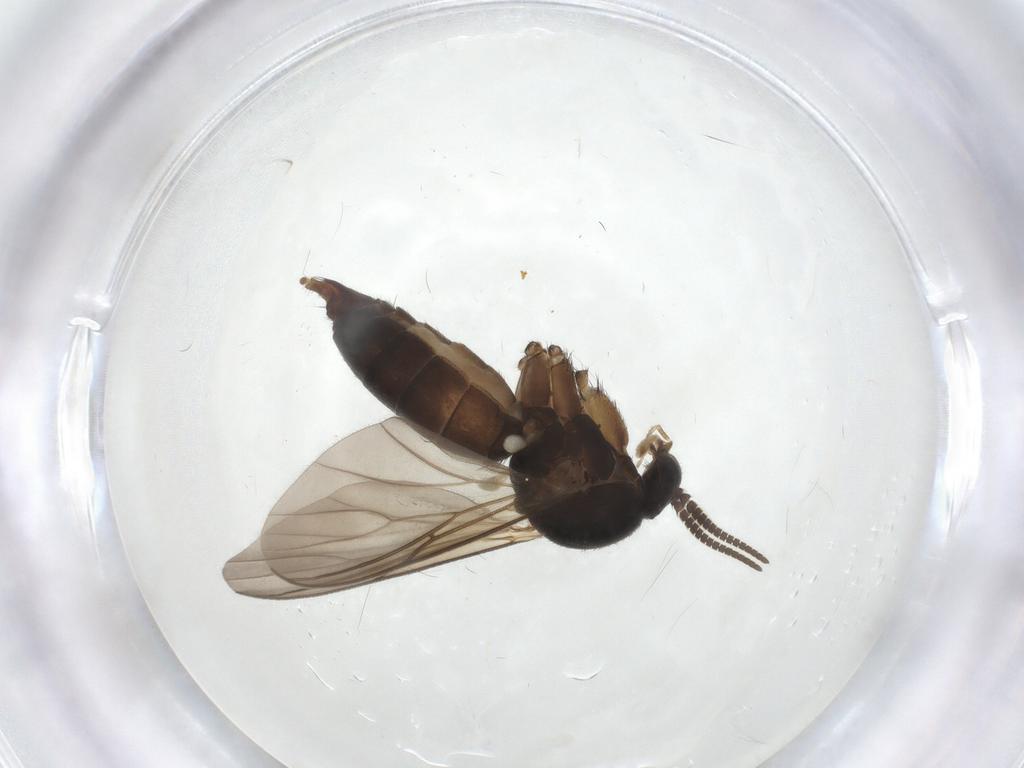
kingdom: Animalia
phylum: Arthropoda
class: Insecta
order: Diptera
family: Mycetophilidae
